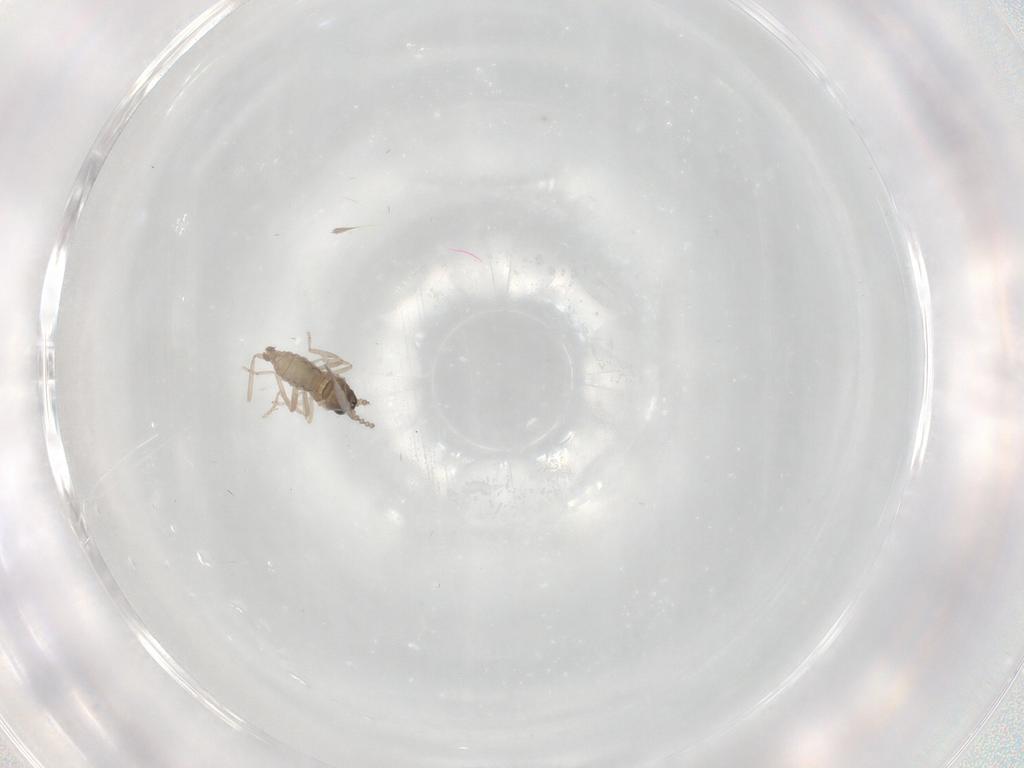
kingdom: Animalia
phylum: Arthropoda
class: Insecta
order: Diptera
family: Cecidomyiidae
